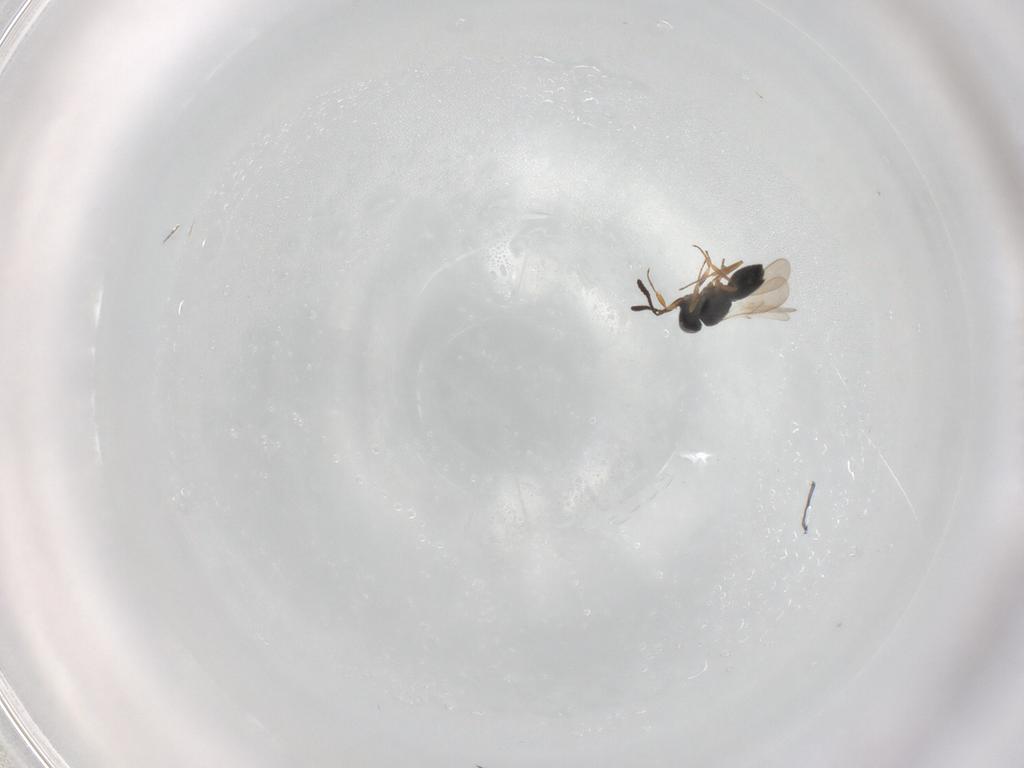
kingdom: Animalia
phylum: Arthropoda
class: Insecta
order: Hymenoptera
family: Scelionidae
